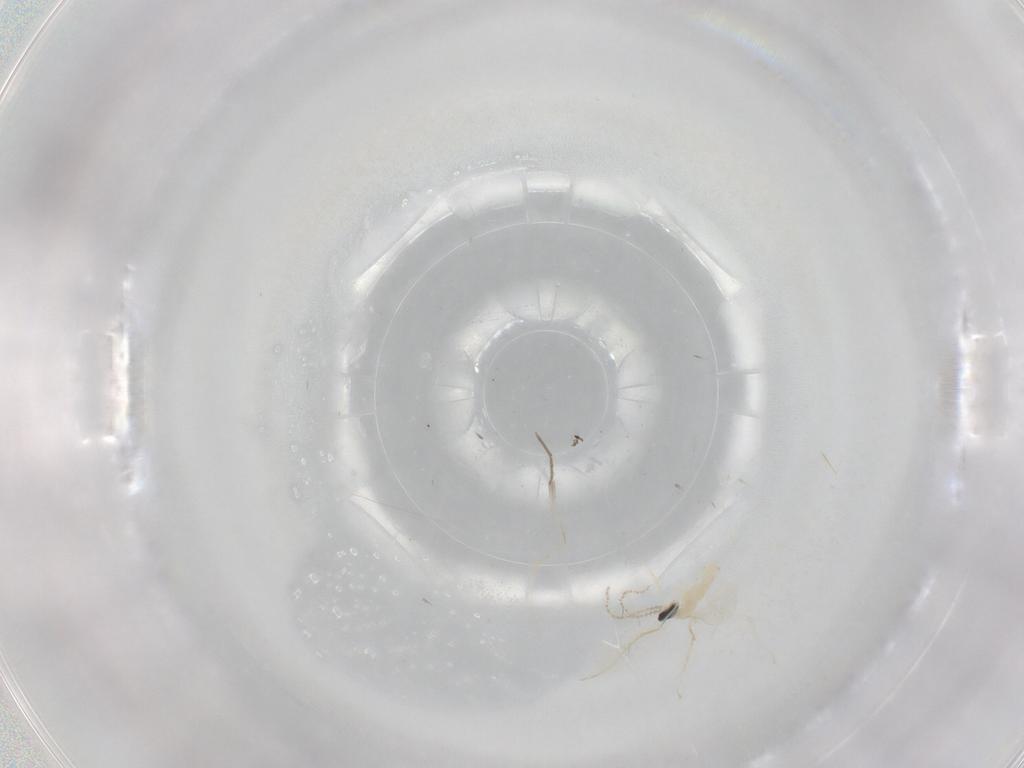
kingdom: Animalia
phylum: Arthropoda
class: Insecta
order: Diptera
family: Cecidomyiidae
